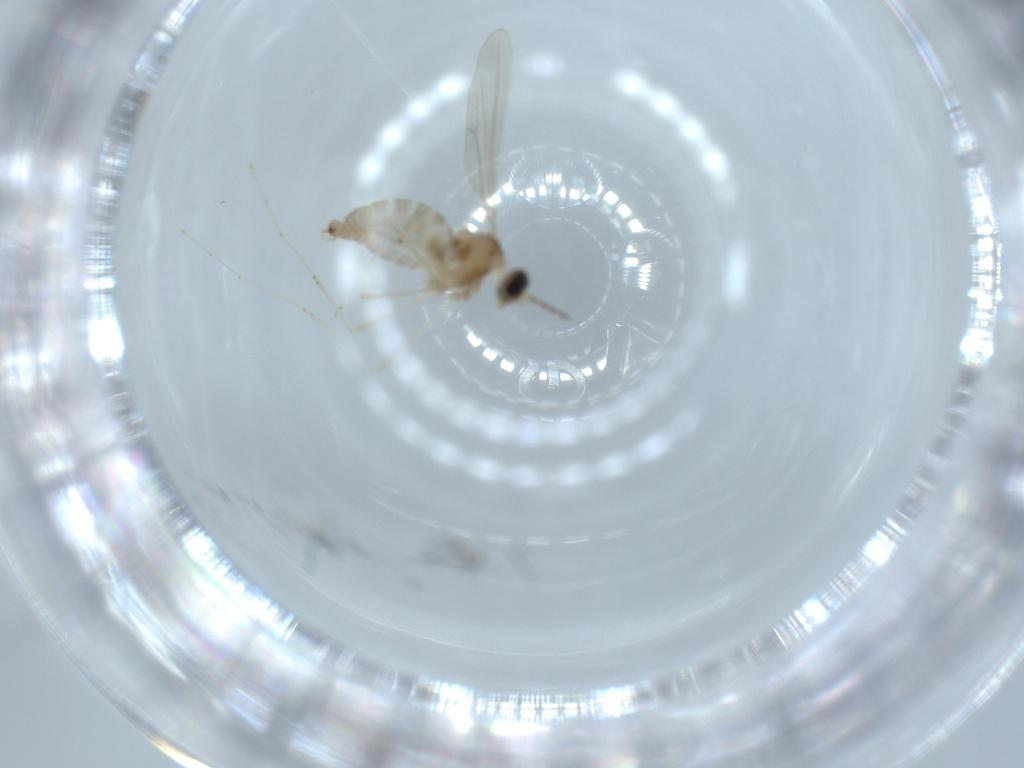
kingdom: Animalia
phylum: Arthropoda
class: Insecta
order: Diptera
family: Cecidomyiidae
